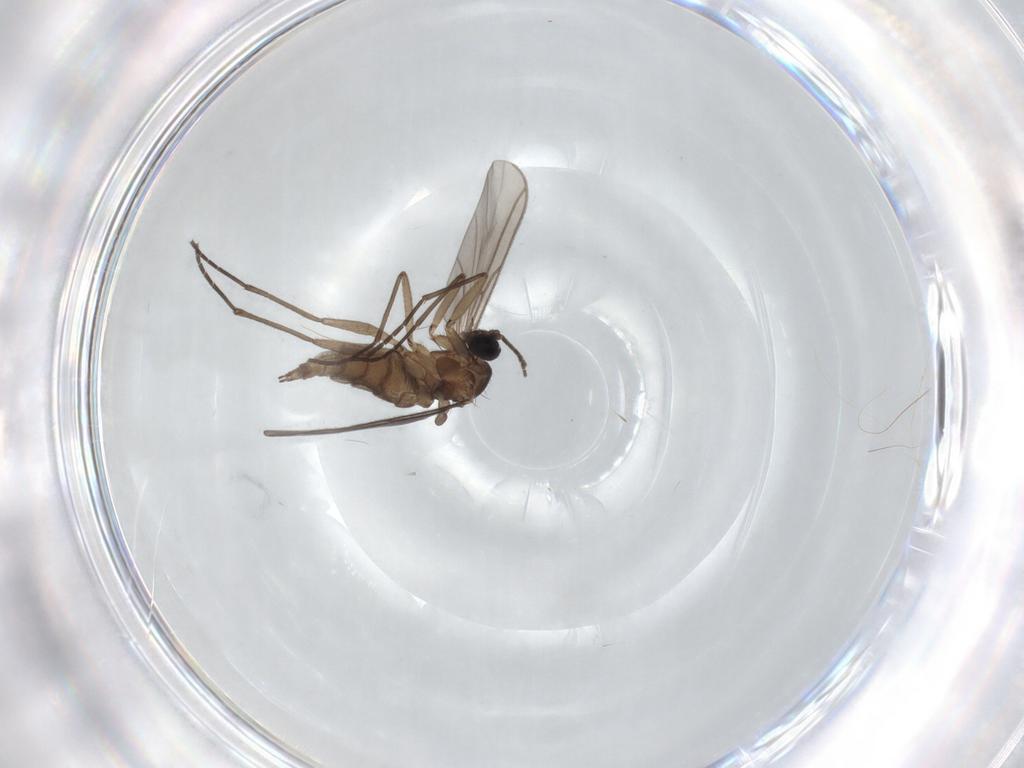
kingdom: Animalia
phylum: Arthropoda
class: Insecta
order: Diptera
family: Limoniidae
